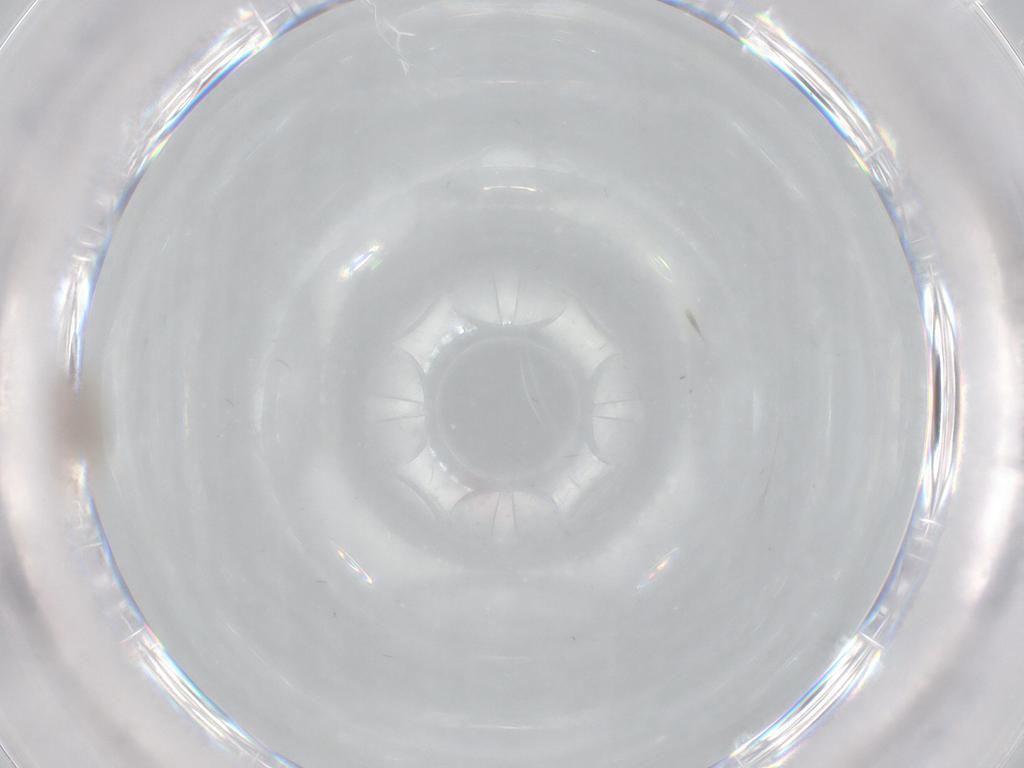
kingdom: Animalia
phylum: Arthropoda
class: Insecta
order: Diptera
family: Psychodidae
